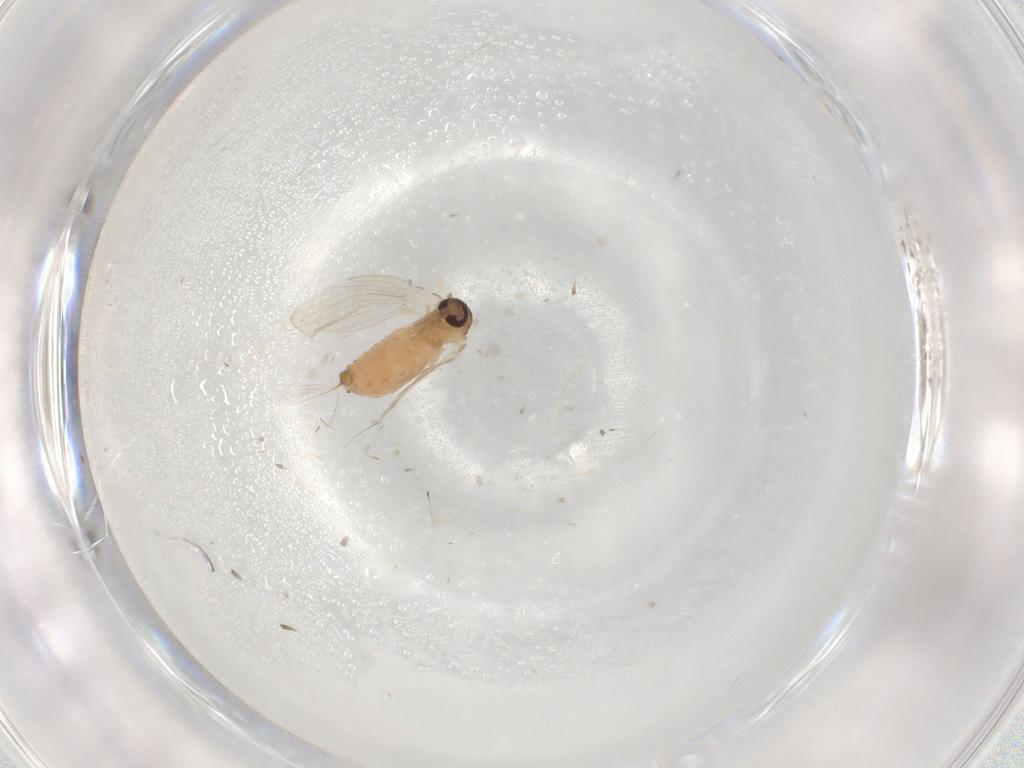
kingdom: Animalia
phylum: Arthropoda
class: Insecta
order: Diptera
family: Psychodidae
